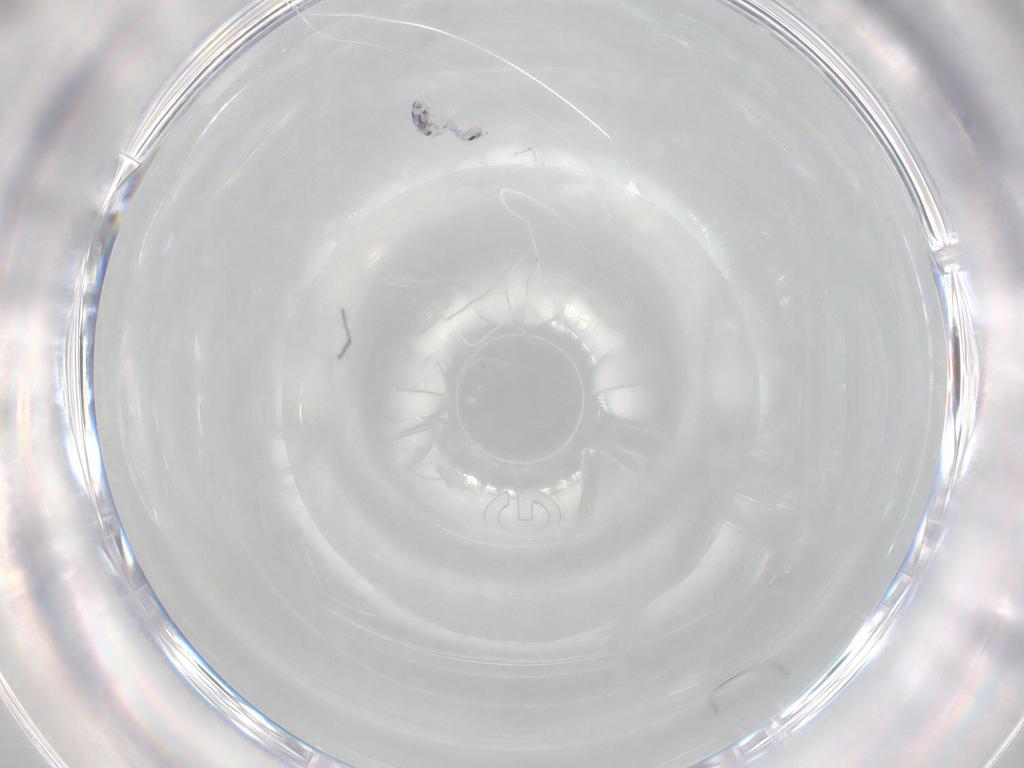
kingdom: Animalia
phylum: Arthropoda
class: Collembola
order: Entomobryomorpha
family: Entomobryidae
